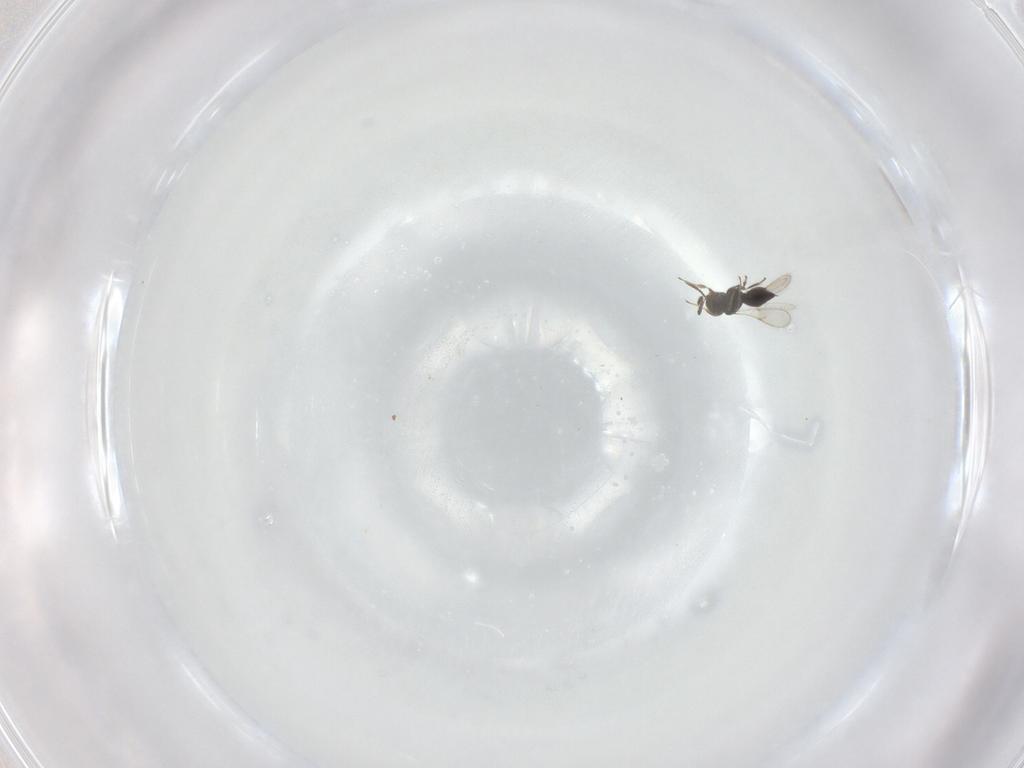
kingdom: Animalia
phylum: Arthropoda
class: Insecta
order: Hymenoptera
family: Scelionidae
